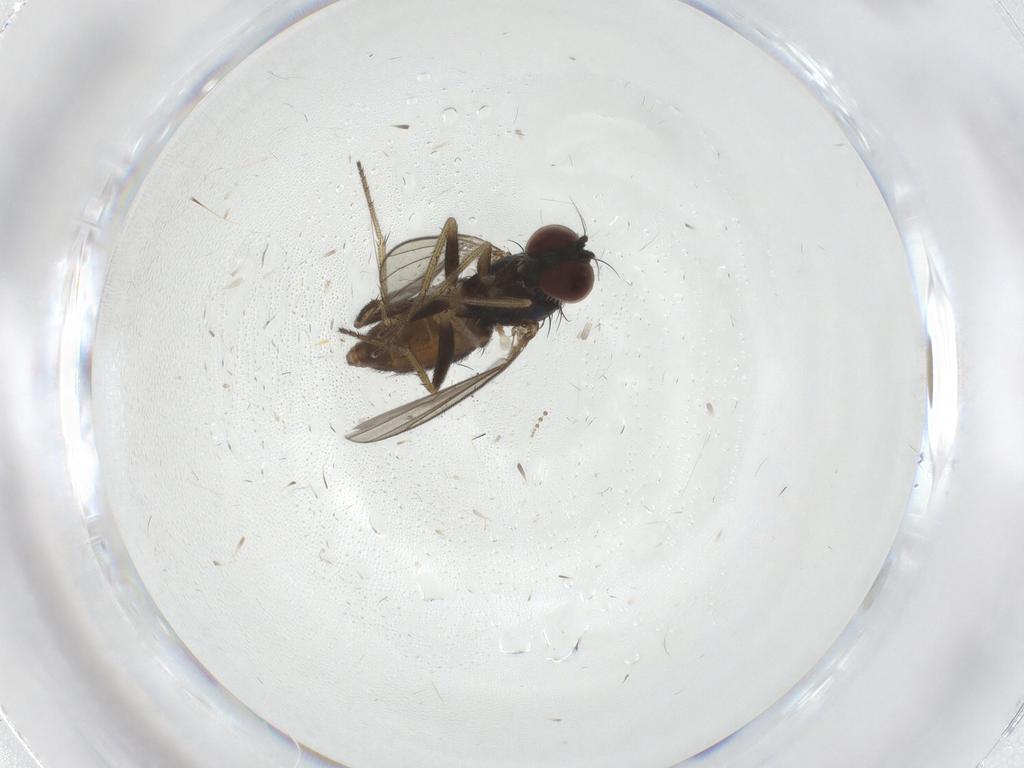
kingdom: Animalia
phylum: Arthropoda
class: Insecta
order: Diptera
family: Dolichopodidae
